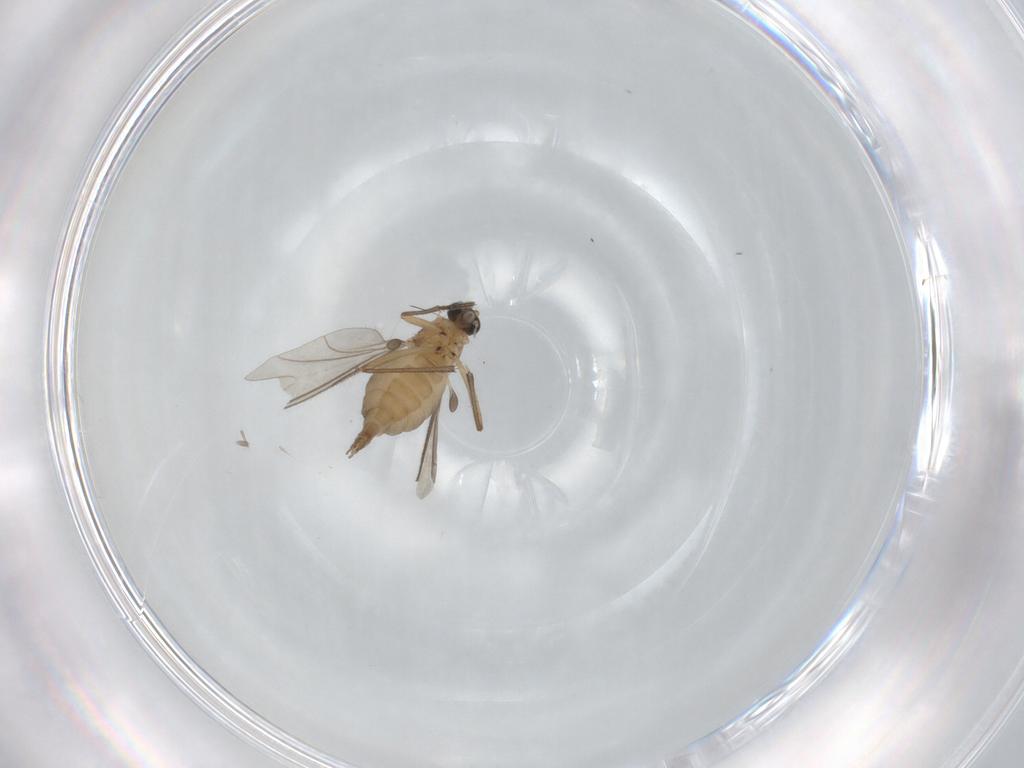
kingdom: Animalia
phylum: Arthropoda
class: Insecta
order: Diptera
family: Sciaridae
